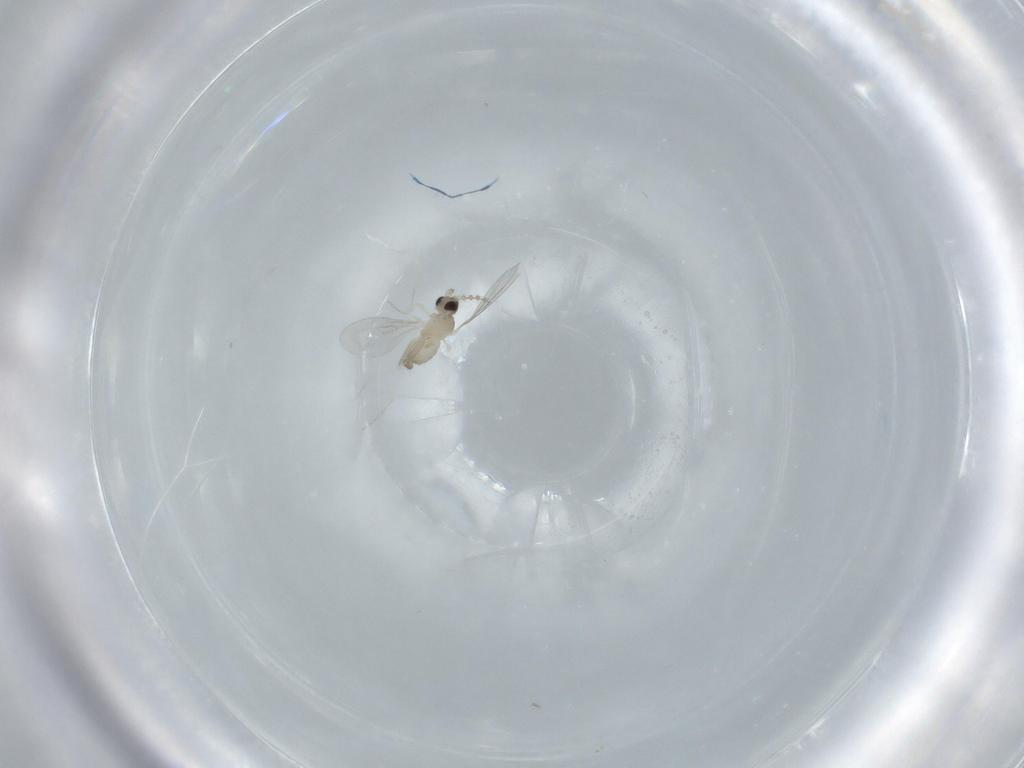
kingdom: Animalia
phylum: Arthropoda
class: Insecta
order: Diptera
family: Cecidomyiidae
